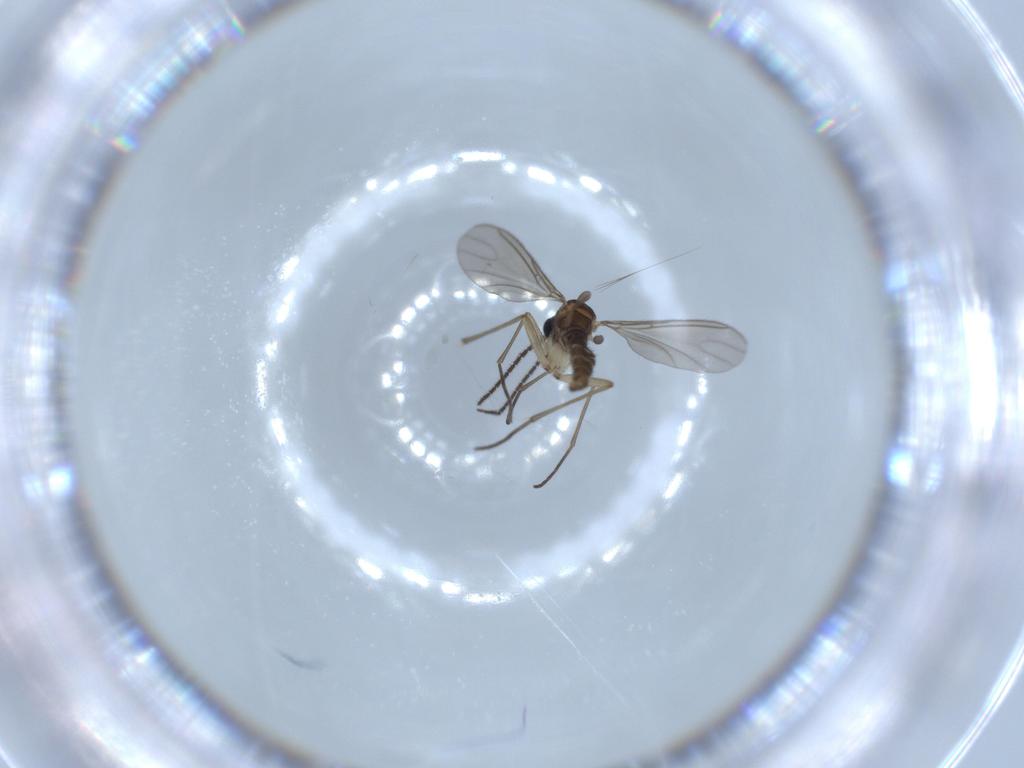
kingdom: Animalia
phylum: Arthropoda
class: Insecta
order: Diptera
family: Sciaridae
